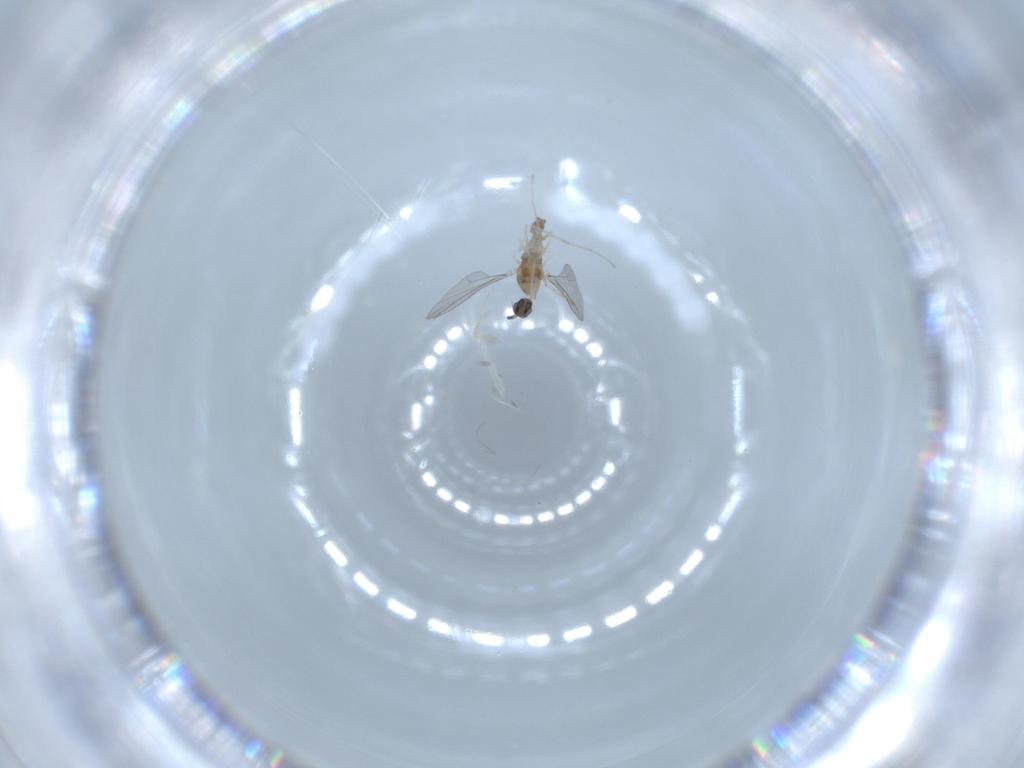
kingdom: Animalia
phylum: Arthropoda
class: Insecta
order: Diptera
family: Cecidomyiidae
